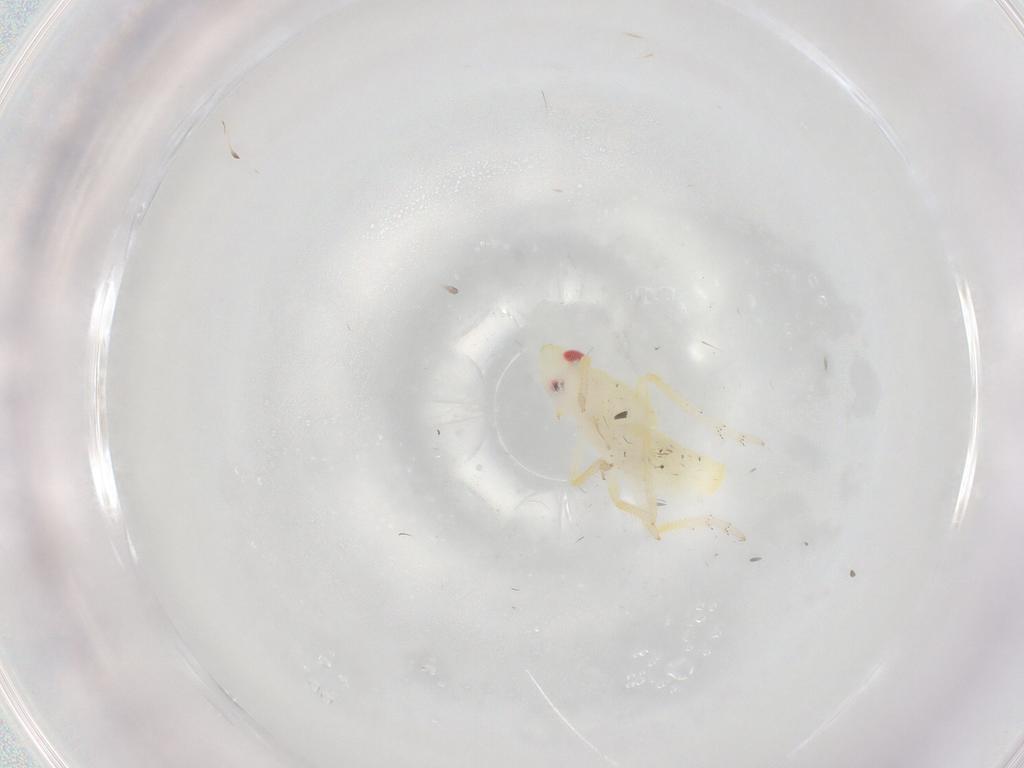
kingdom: Animalia
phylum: Arthropoda
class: Insecta
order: Hemiptera
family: Fulgoroidea_incertae_sedis
